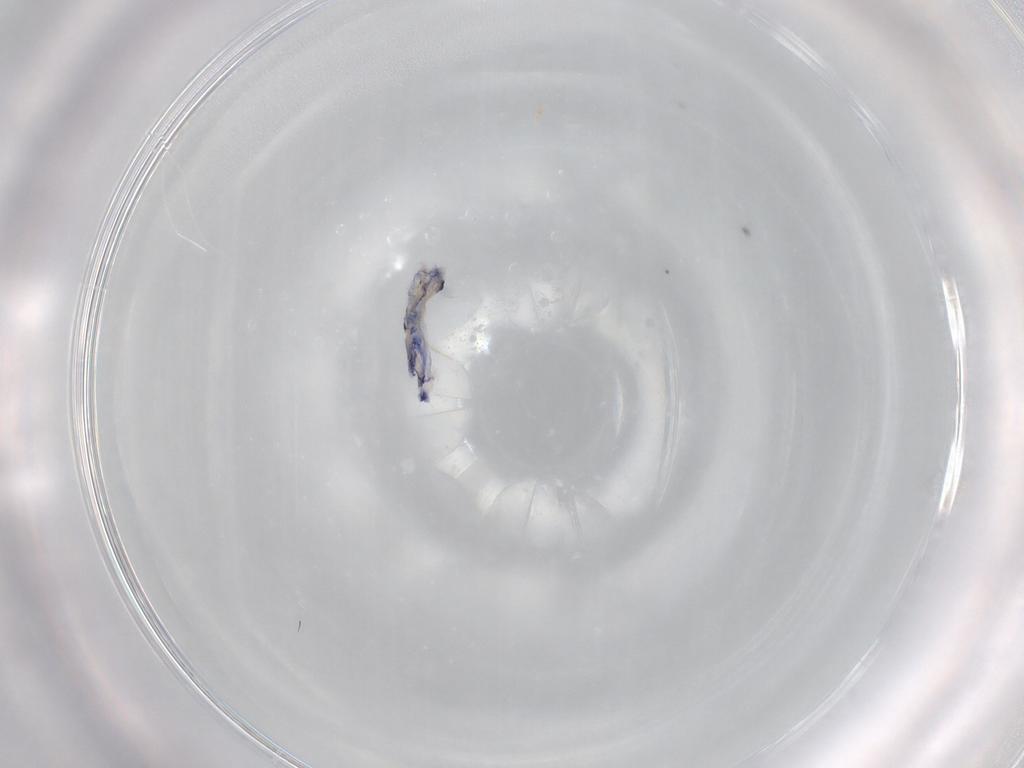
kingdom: Animalia
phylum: Arthropoda
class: Collembola
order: Entomobryomorpha
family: Entomobryidae
